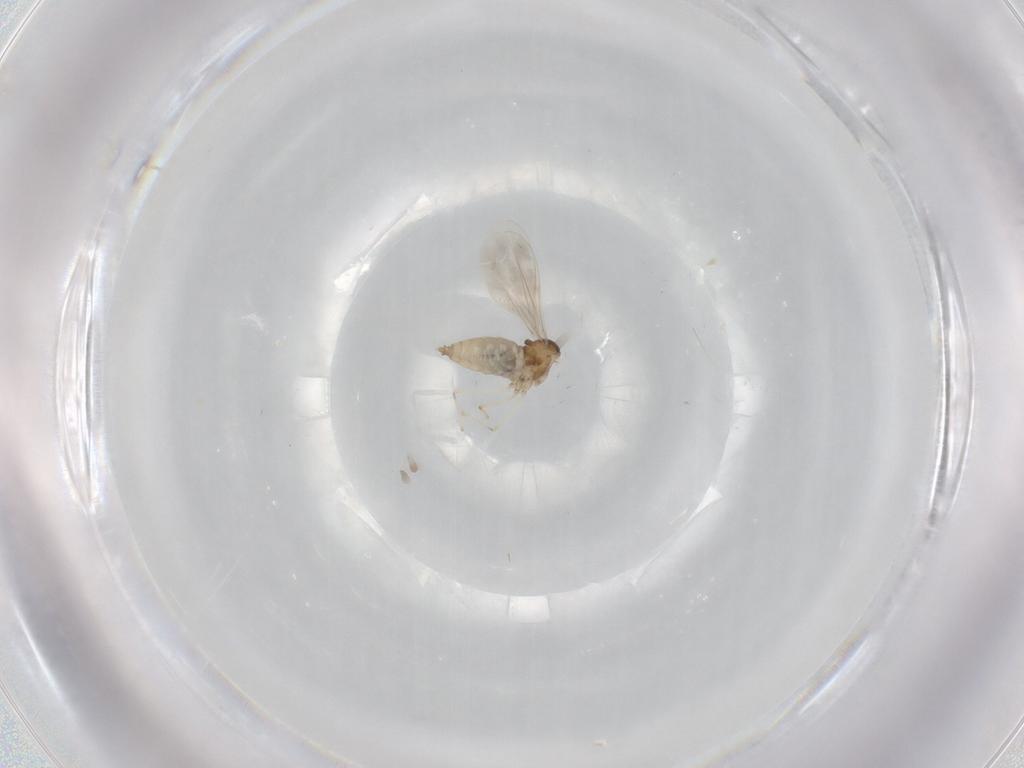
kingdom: Animalia
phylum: Arthropoda
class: Insecta
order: Diptera
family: Cecidomyiidae
